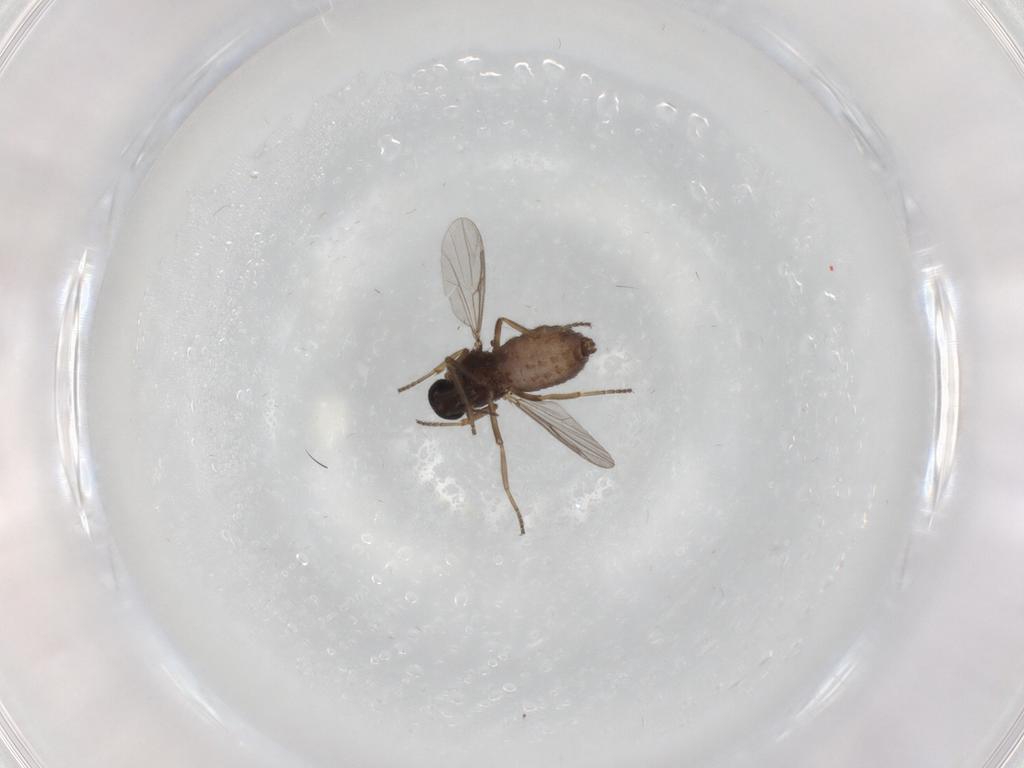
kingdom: Animalia
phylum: Arthropoda
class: Insecta
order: Diptera
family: Ceratopogonidae
